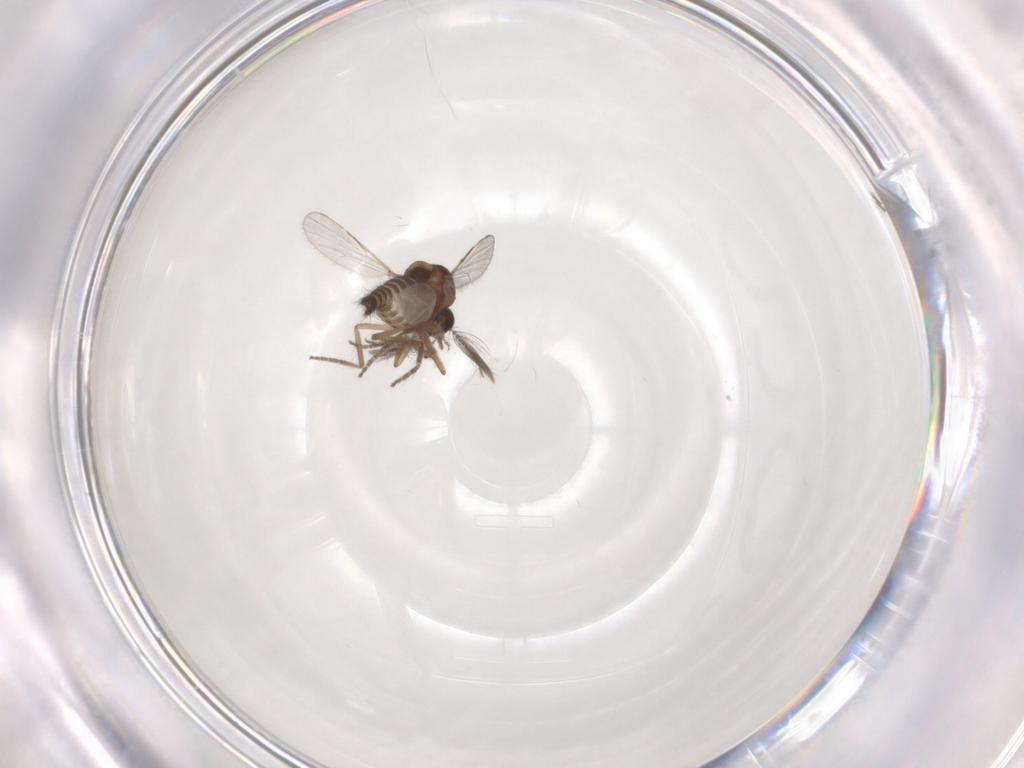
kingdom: Animalia
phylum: Arthropoda
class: Insecta
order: Diptera
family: Ceratopogonidae
